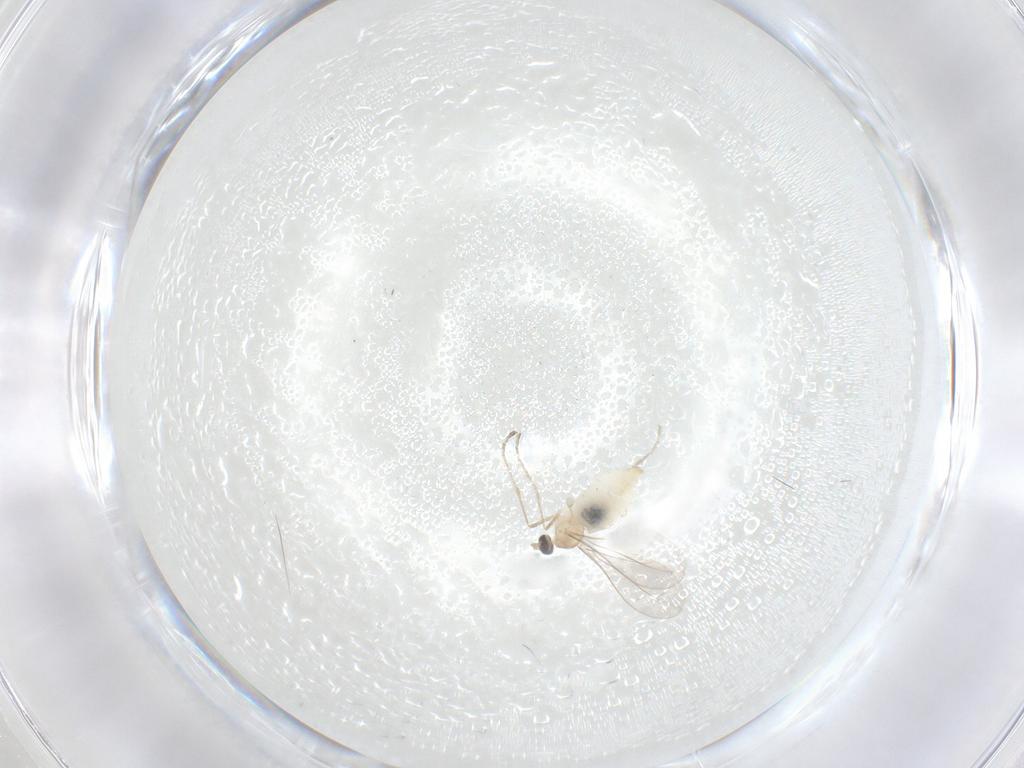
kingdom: Animalia
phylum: Arthropoda
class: Insecta
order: Diptera
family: Cecidomyiidae
